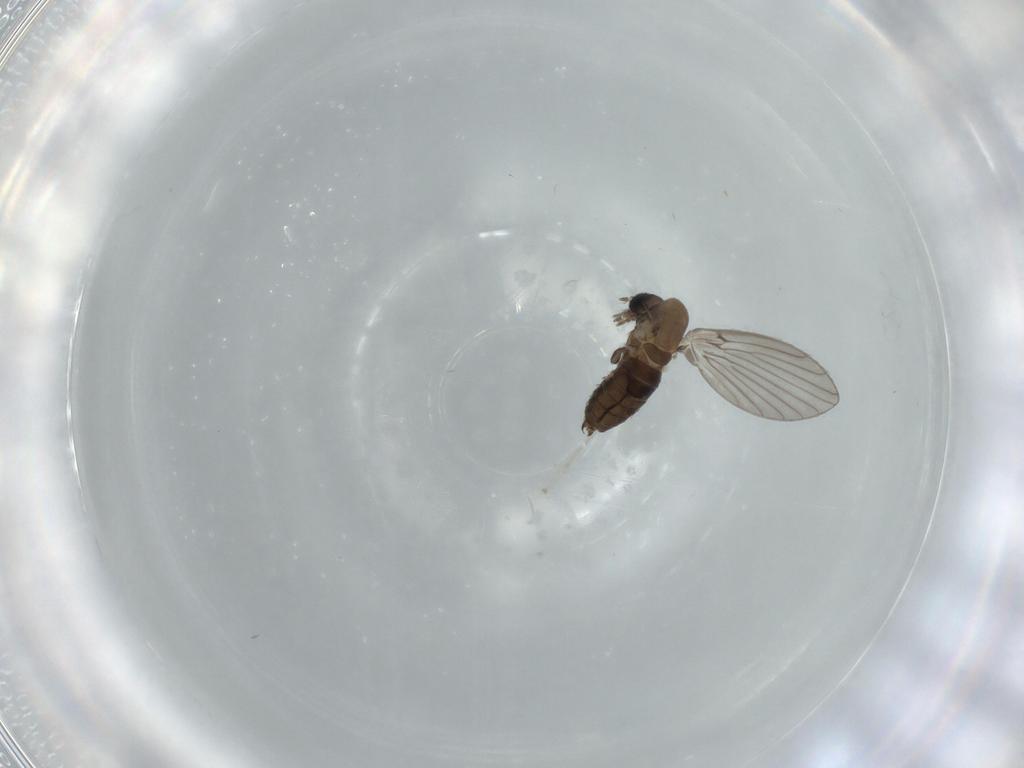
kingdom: Animalia
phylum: Arthropoda
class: Insecta
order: Diptera
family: Psychodidae
